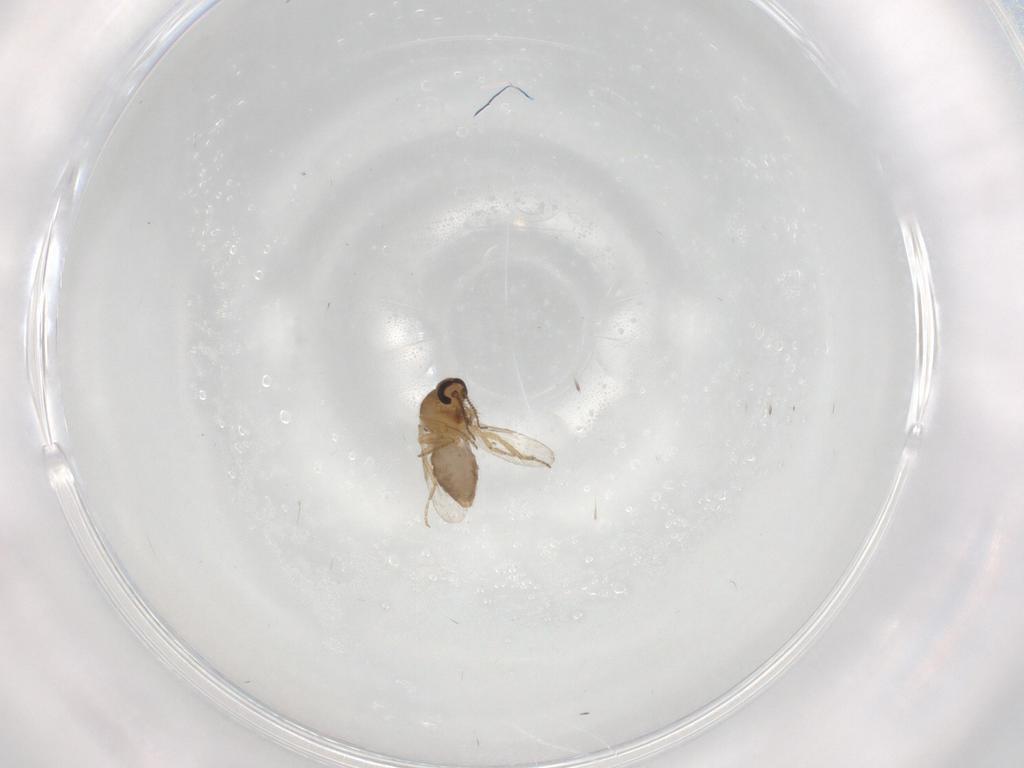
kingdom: Animalia
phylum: Arthropoda
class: Insecta
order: Diptera
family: Ceratopogonidae
